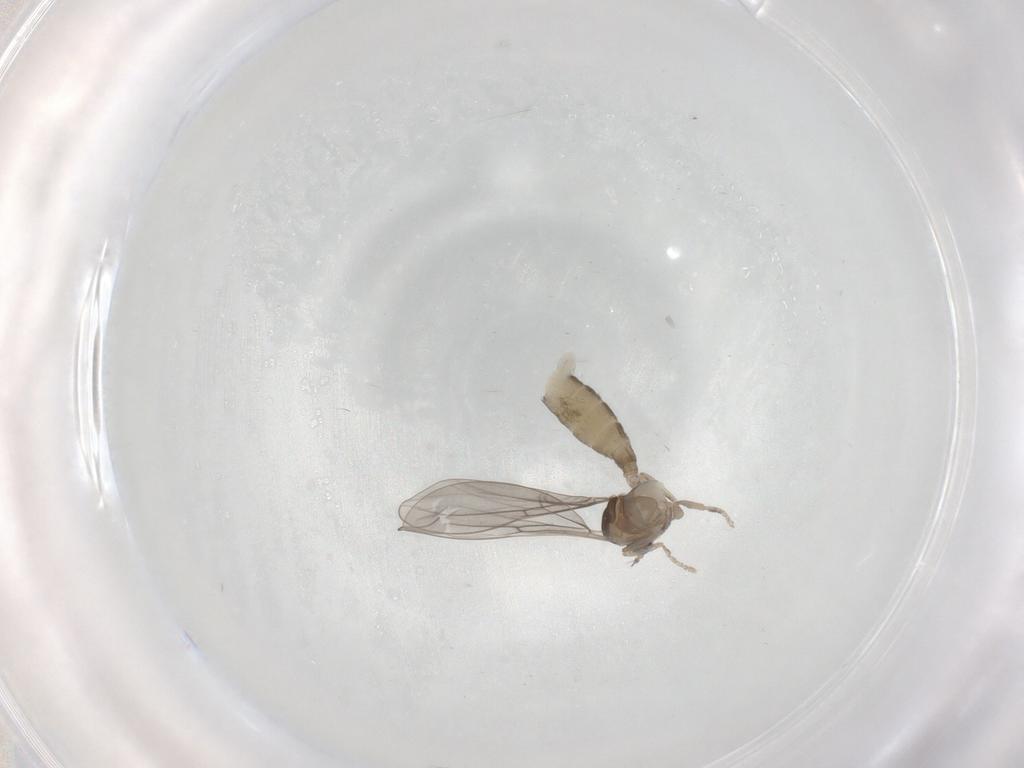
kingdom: Animalia
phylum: Arthropoda
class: Insecta
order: Diptera
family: Cecidomyiidae
